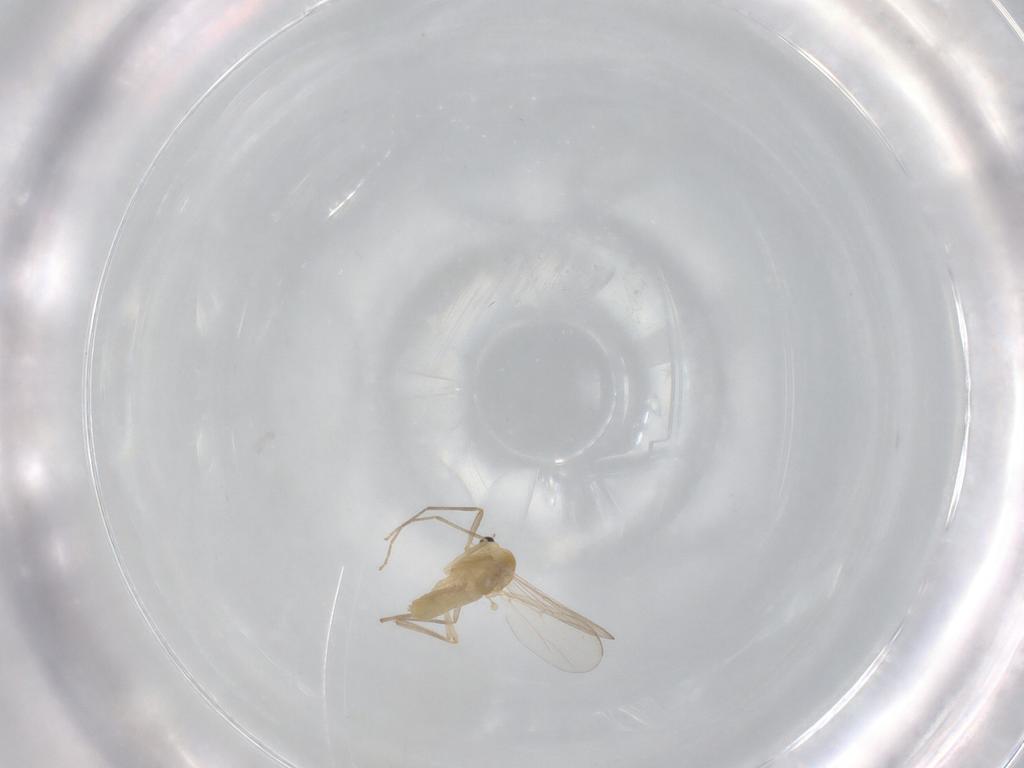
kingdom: Animalia
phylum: Arthropoda
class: Insecta
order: Diptera
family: Chironomidae
